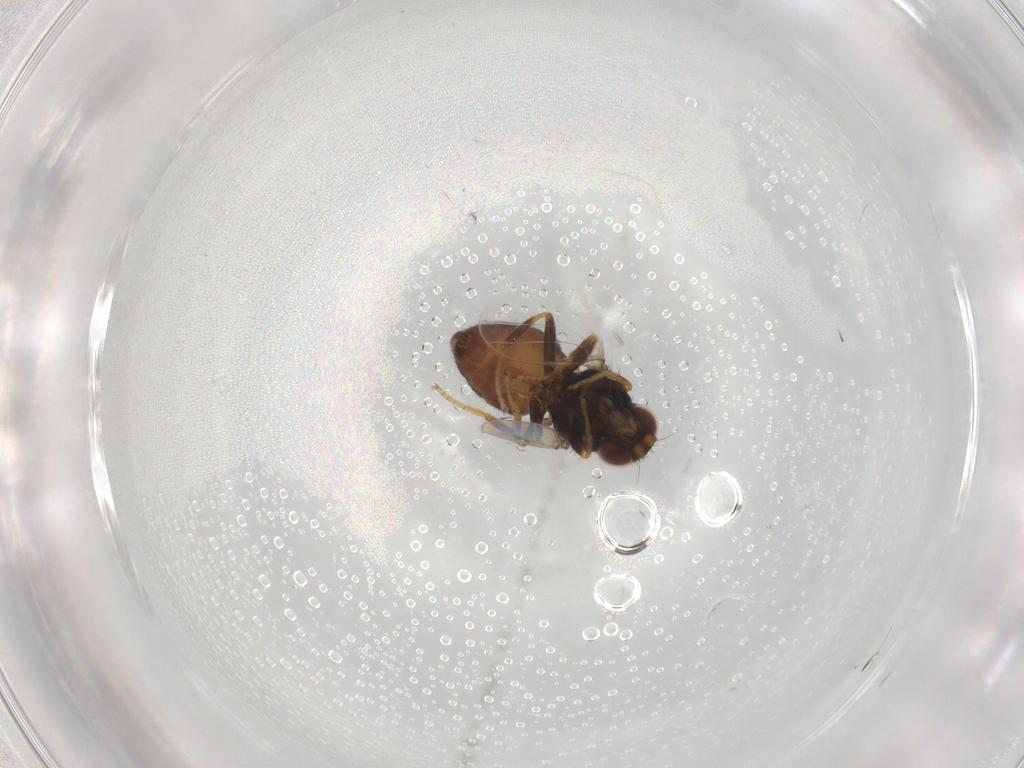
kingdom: Animalia
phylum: Arthropoda
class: Insecta
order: Diptera
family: Chloropidae
